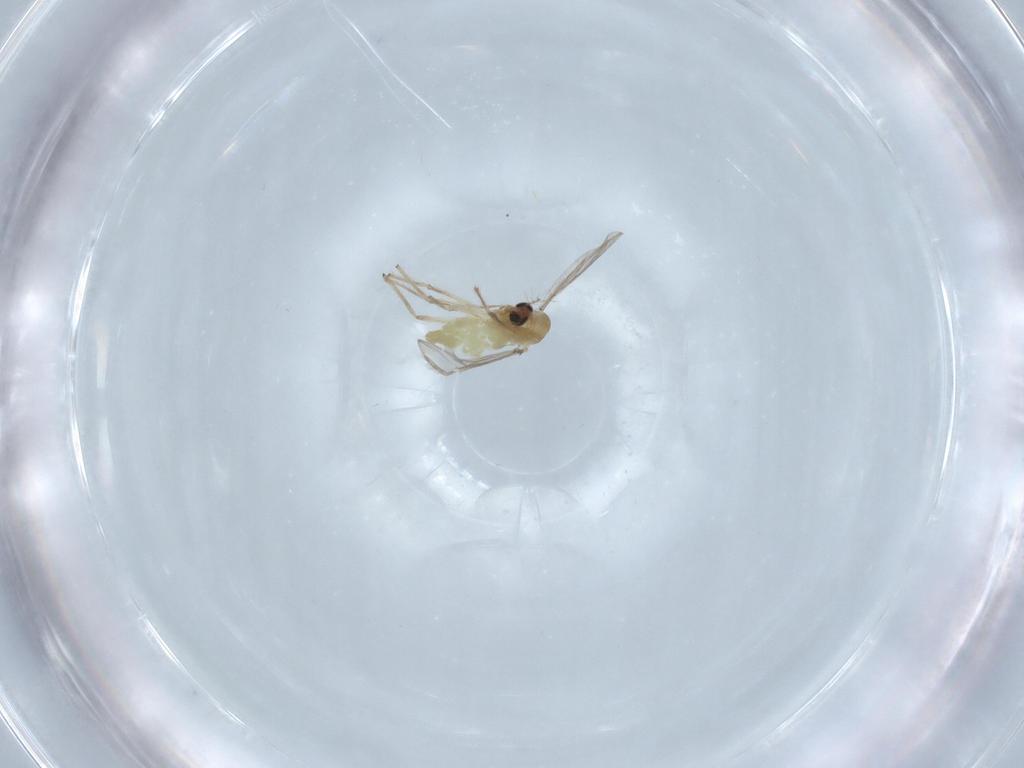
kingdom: Animalia
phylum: Arthropoda
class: Insecta
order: Diptera
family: Chironomidae
